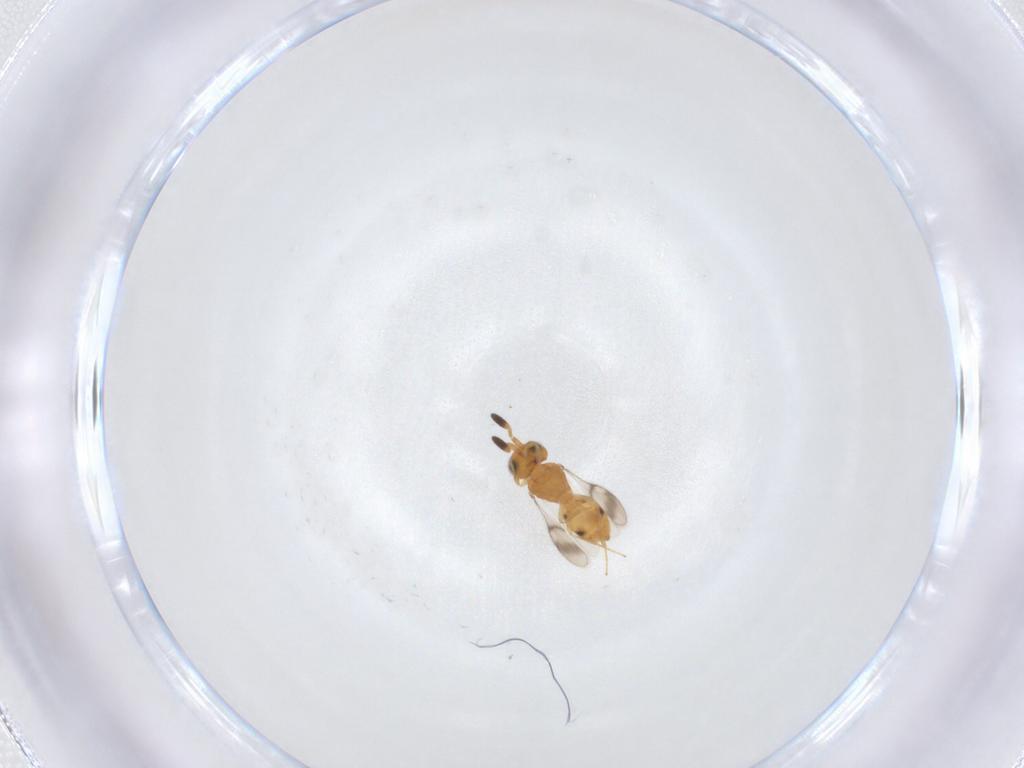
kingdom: Animalia
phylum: Arthropoda
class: Insecta
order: Hymenoptera
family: Scelionidae
